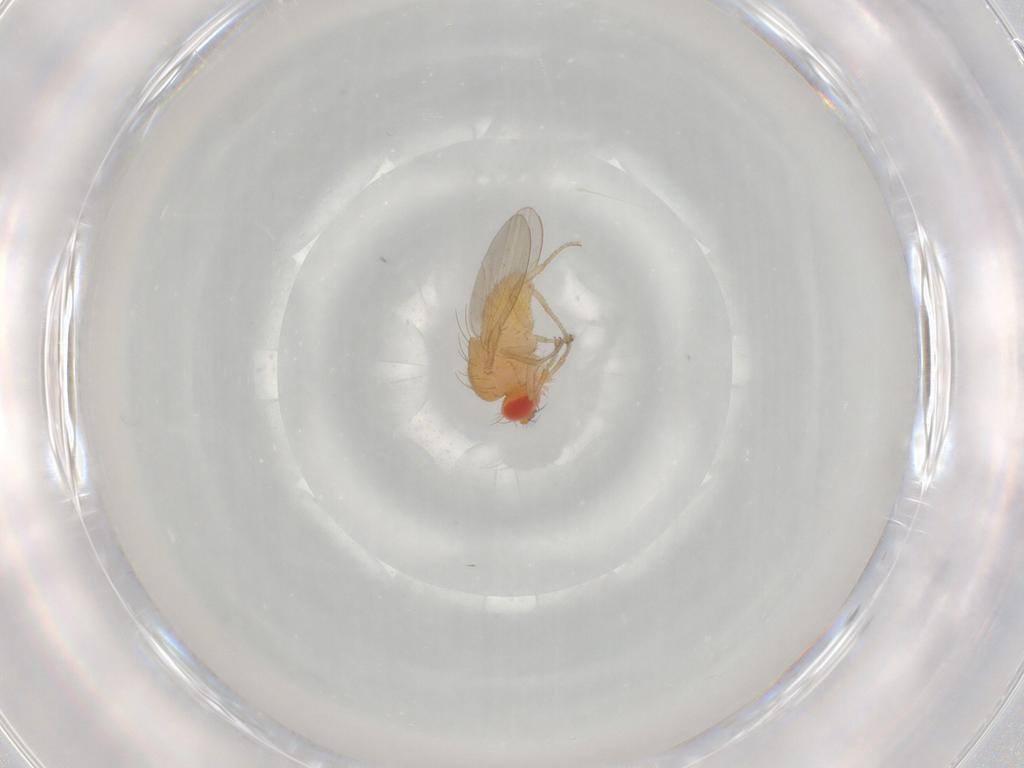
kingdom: Animalia
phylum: Arthropoda
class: Insecta
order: Diptera
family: Drosophilidae
